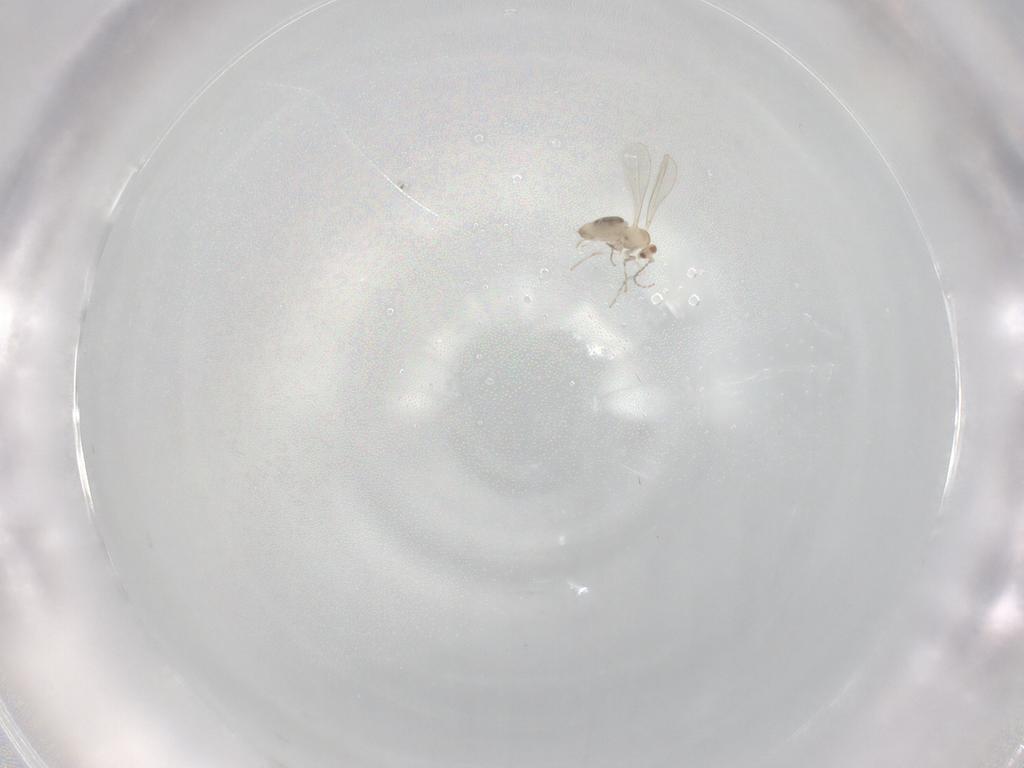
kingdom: Animalia
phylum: Arthropoda
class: Insecta
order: Diptera
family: Cecidomyiidae
